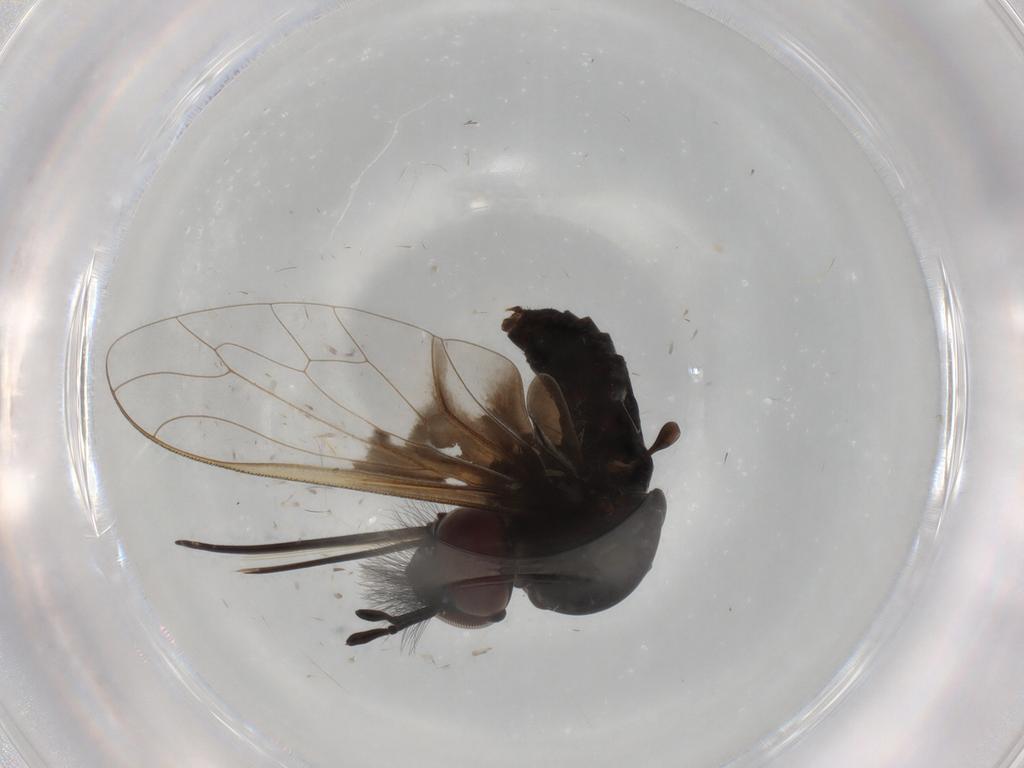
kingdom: Animalia
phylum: Arthropoda
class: Insecta
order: Diptera
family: Bombyliidae
